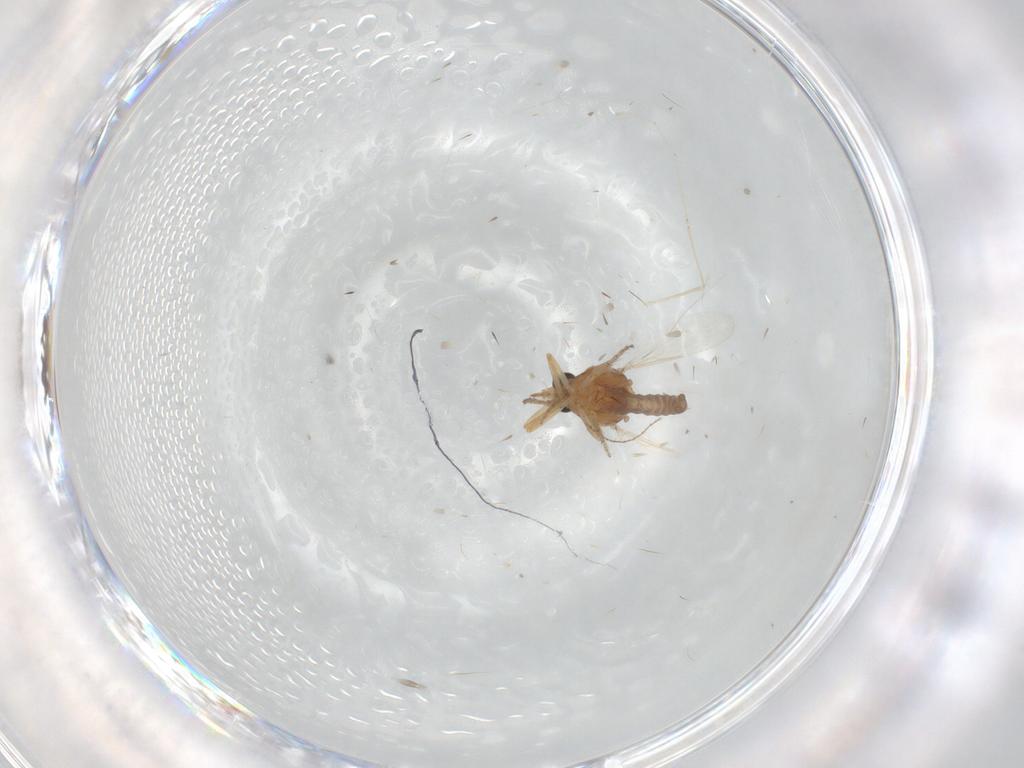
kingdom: Animalia
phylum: Arthropoda
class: Insecta
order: Diptera
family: Ceratopogonidae
